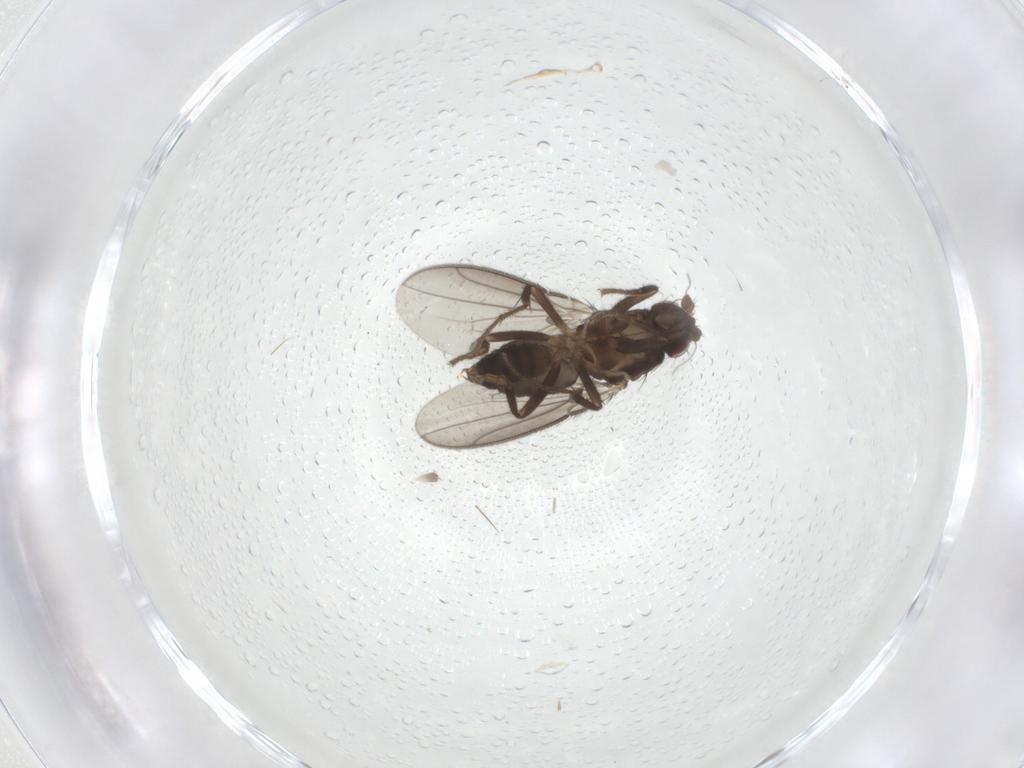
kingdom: Animalia
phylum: Arthropoda
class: Insecta
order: Diptera
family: Sphaeroceridae
